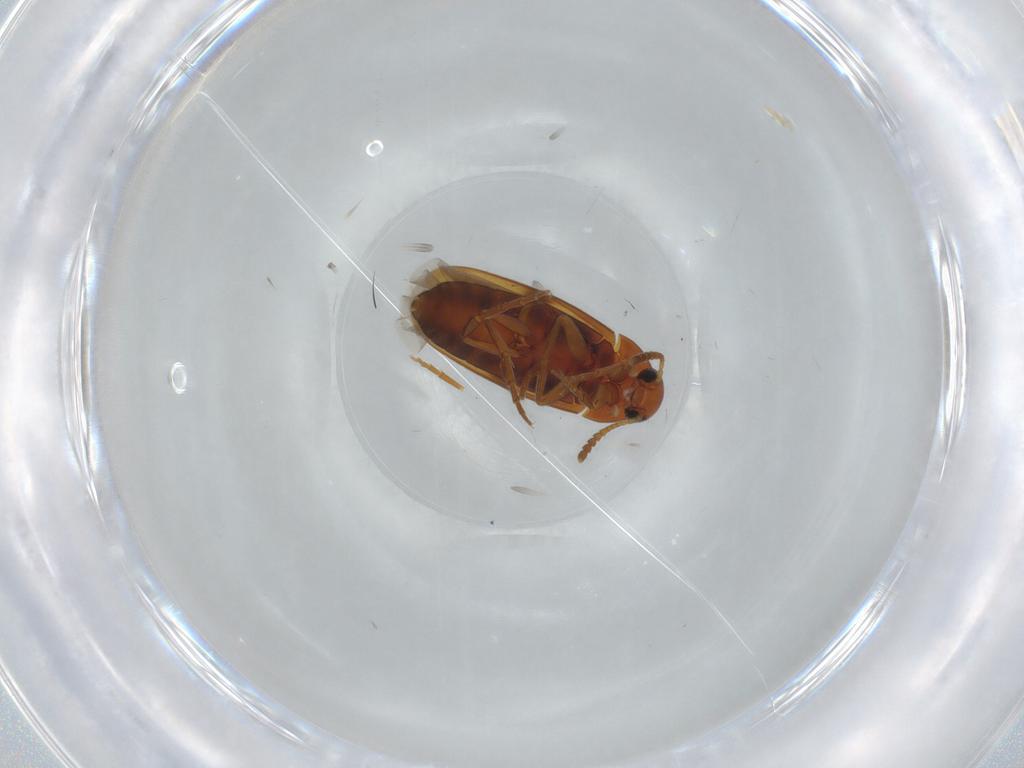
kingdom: Animalia
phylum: Arthropoda
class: Insecta
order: Coleoptera
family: Scraptiidae
